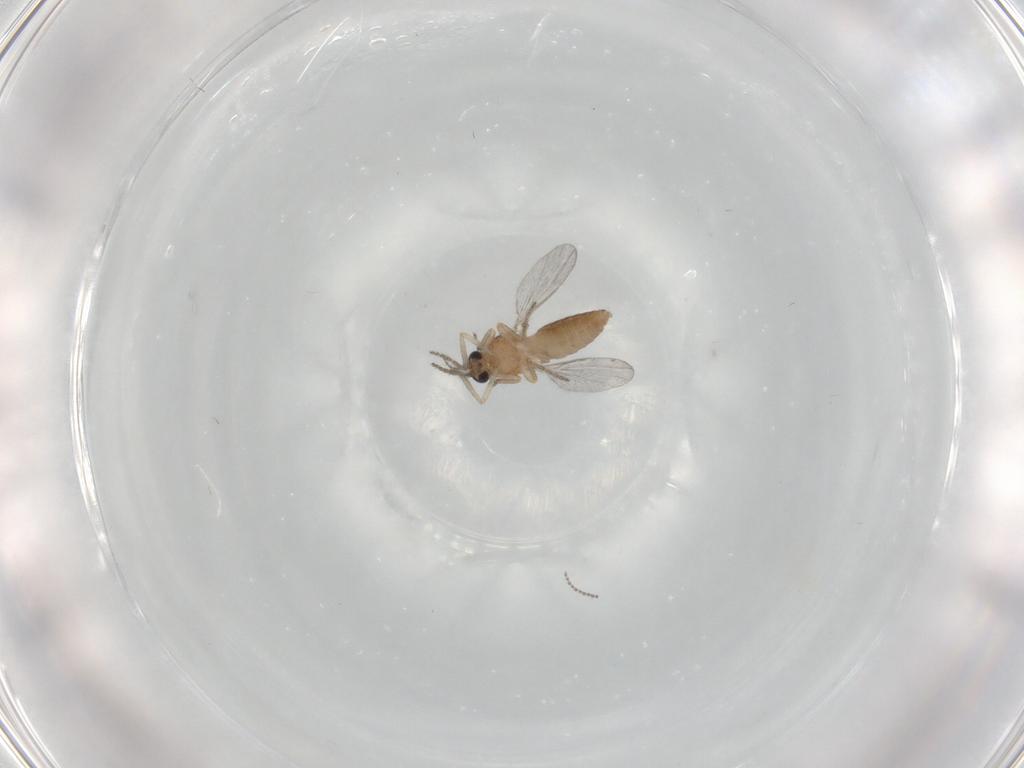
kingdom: Animalia
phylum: Arthropoda
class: Insecta
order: Diptera
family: Ceratopogonidae
